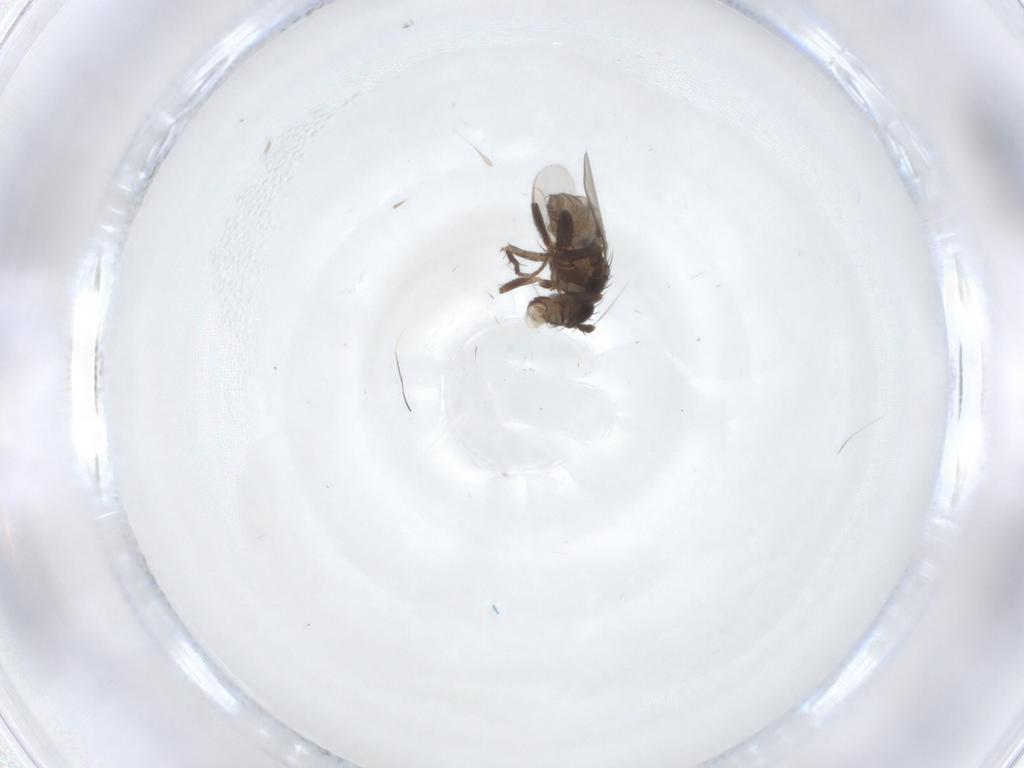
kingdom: Animalia
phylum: Arthropoda
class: Insecta
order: Diptera
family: Sphaeroceridae
